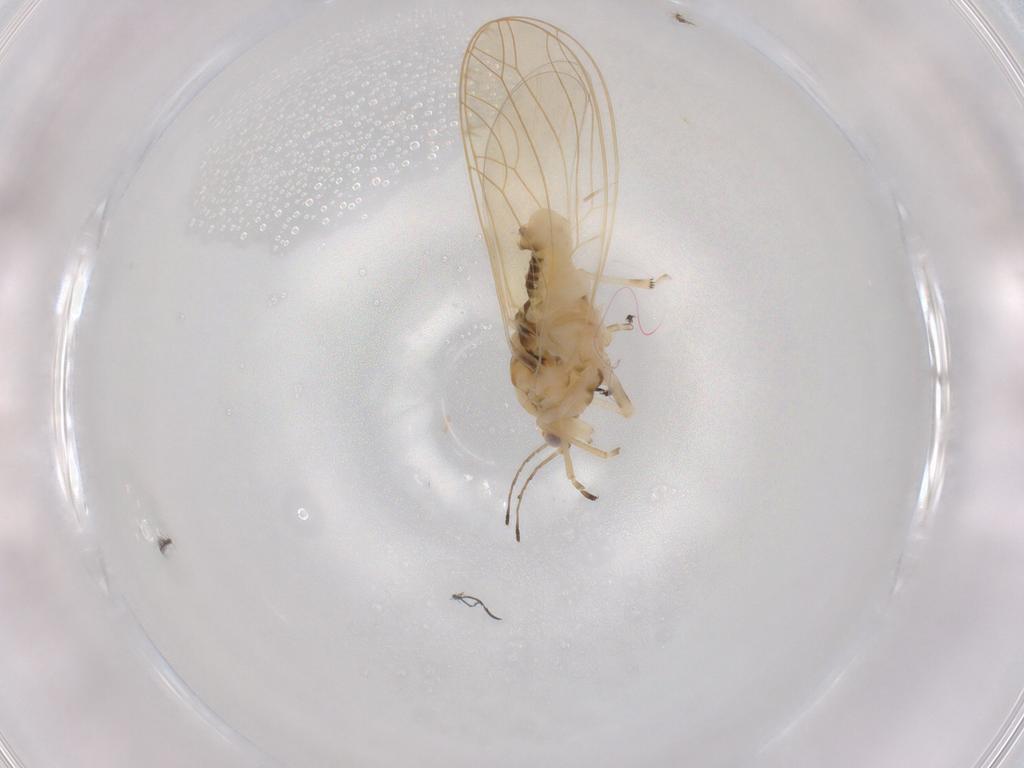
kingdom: Animalia
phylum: Arthropoda
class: Insecta
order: Hemiptera
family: Triozidae
